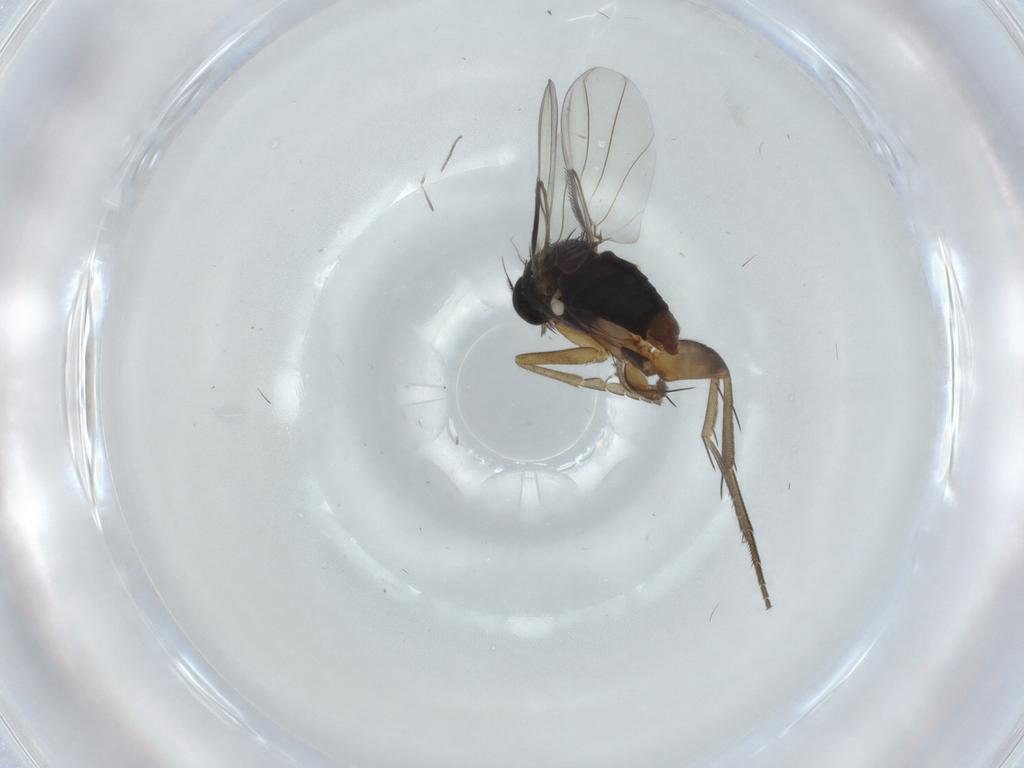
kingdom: Animalia
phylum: Arthropoda
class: Insecta
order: Diptera
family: Phoridae
